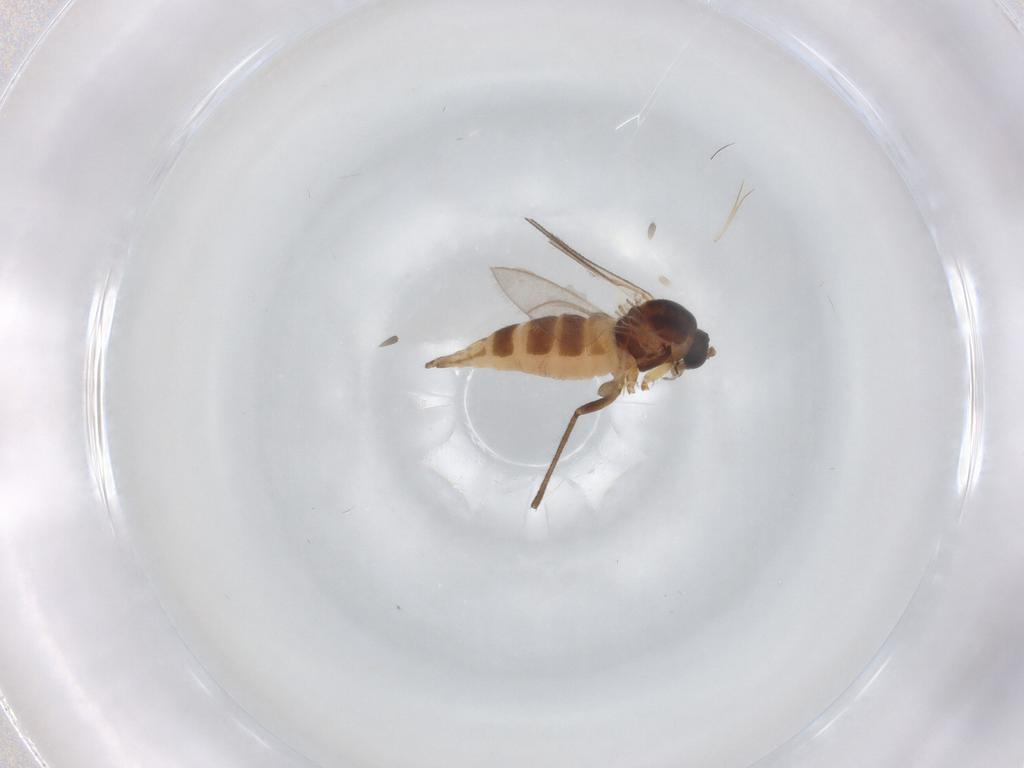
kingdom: Animalia
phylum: Arthropoda
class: Insecta
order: Diptera
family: Sciaridae
